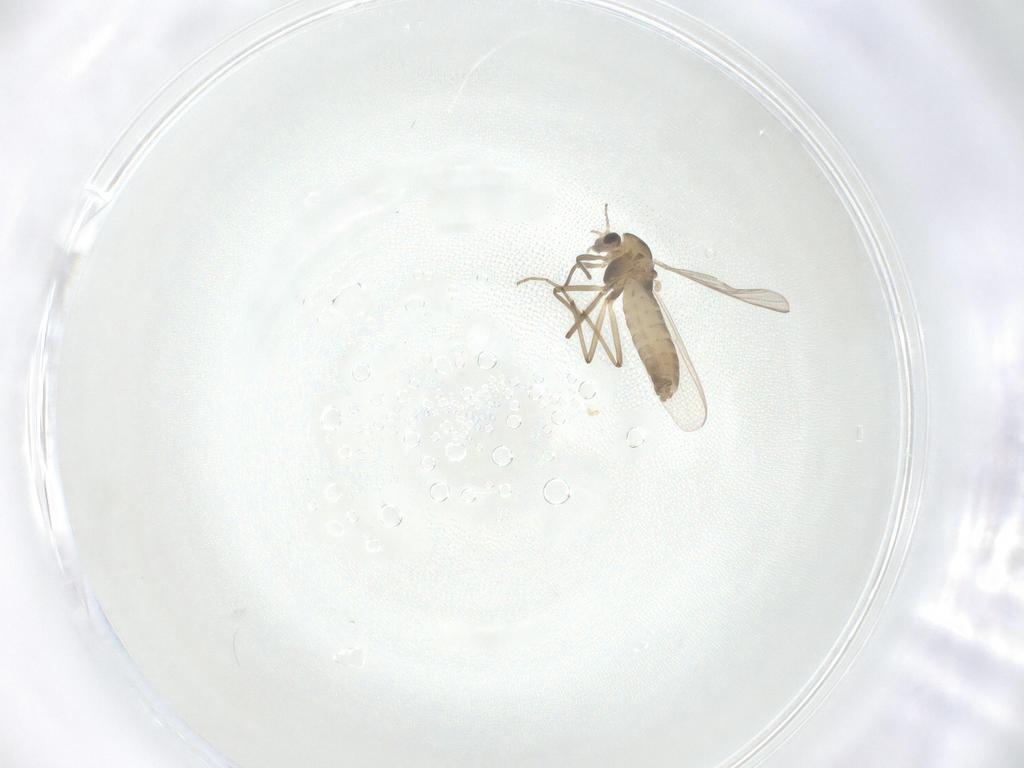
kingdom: Animalia
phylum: Arthropoda
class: Insecta
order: Diptera
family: Chironomidae
